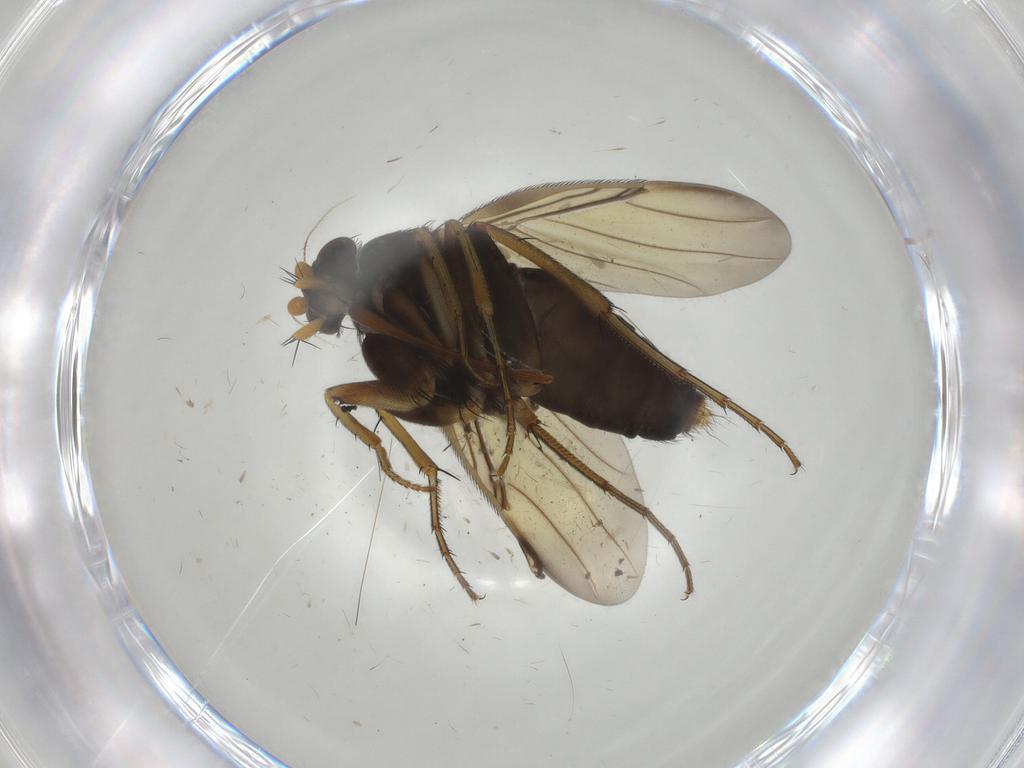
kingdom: Animalia
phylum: Arthropoda
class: Insecta
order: Diptera
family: Phoridae
